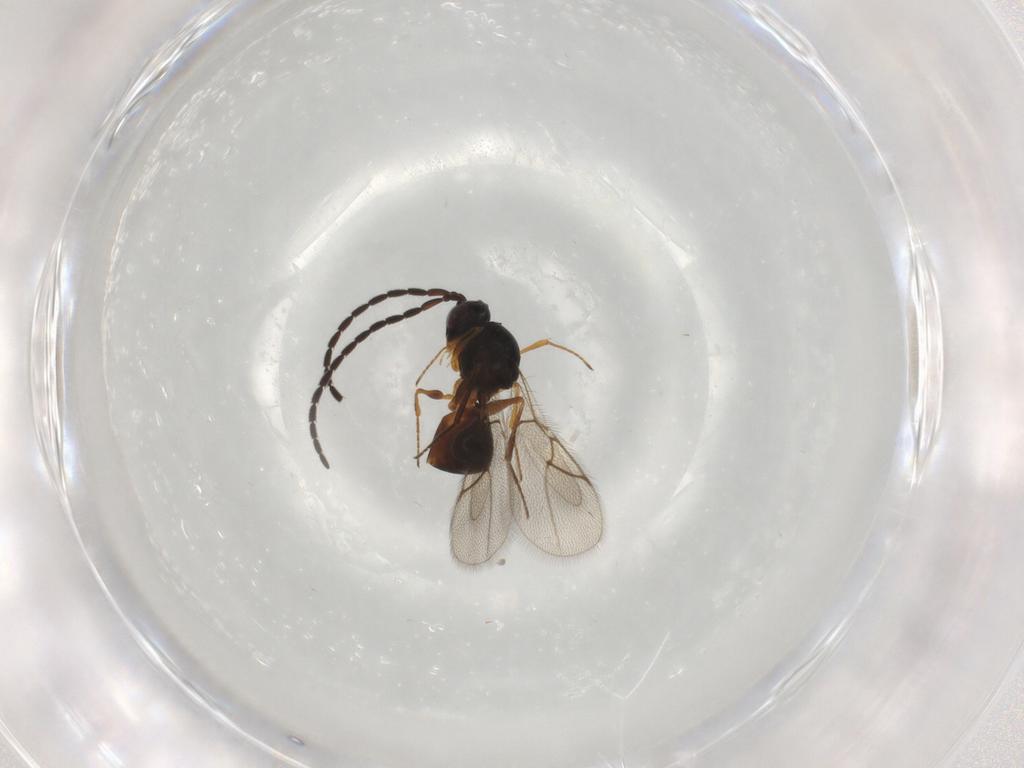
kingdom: Animalia
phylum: Arthropoda
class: Insecta
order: Hymenoptera
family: Figitidae
